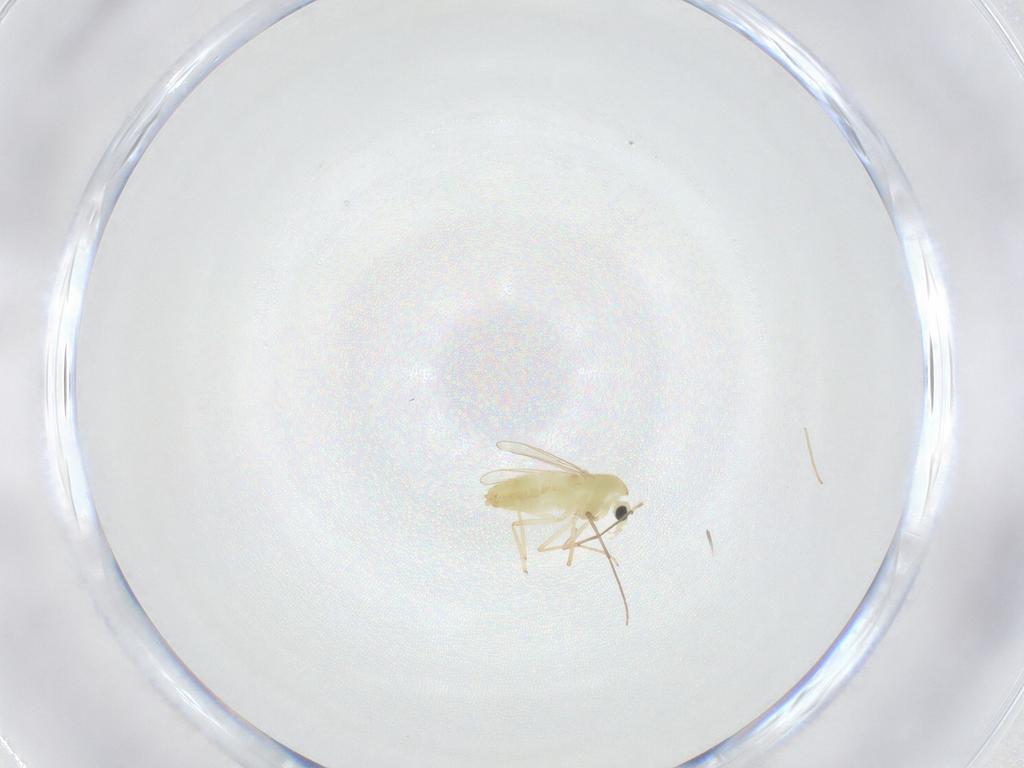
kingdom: Animalia
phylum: Arthropoda
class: Insecta
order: Diptera
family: Chironomidae
